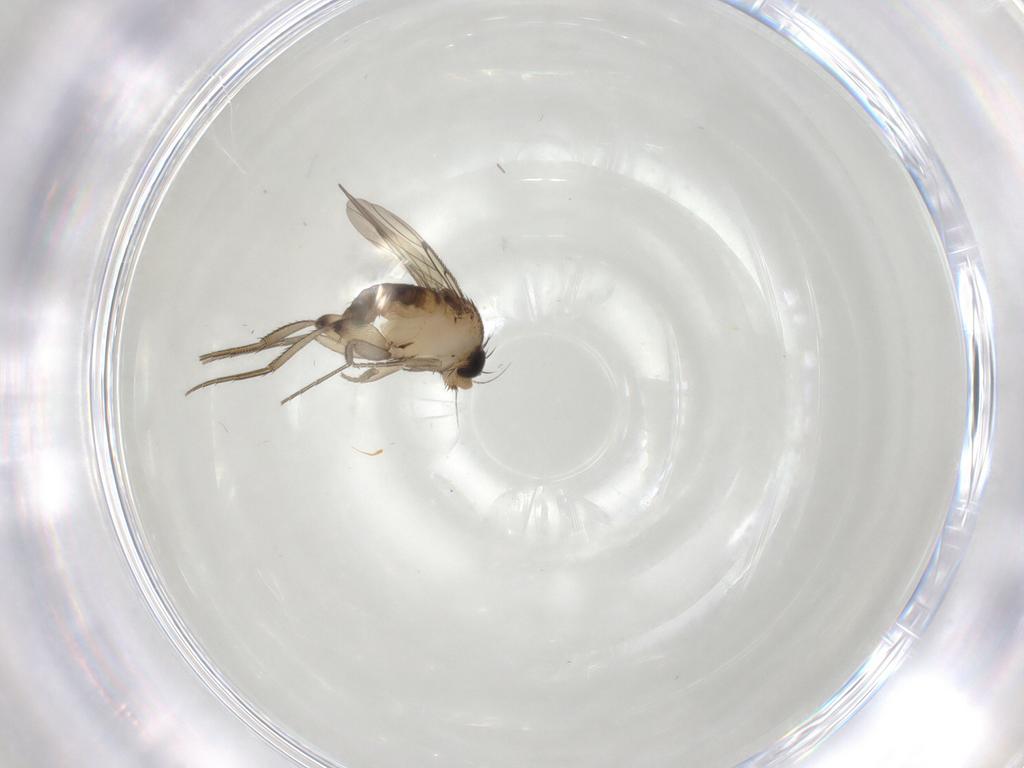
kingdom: Animalia
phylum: Arthropoda
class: Insecta
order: Diptera
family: Phoridae
